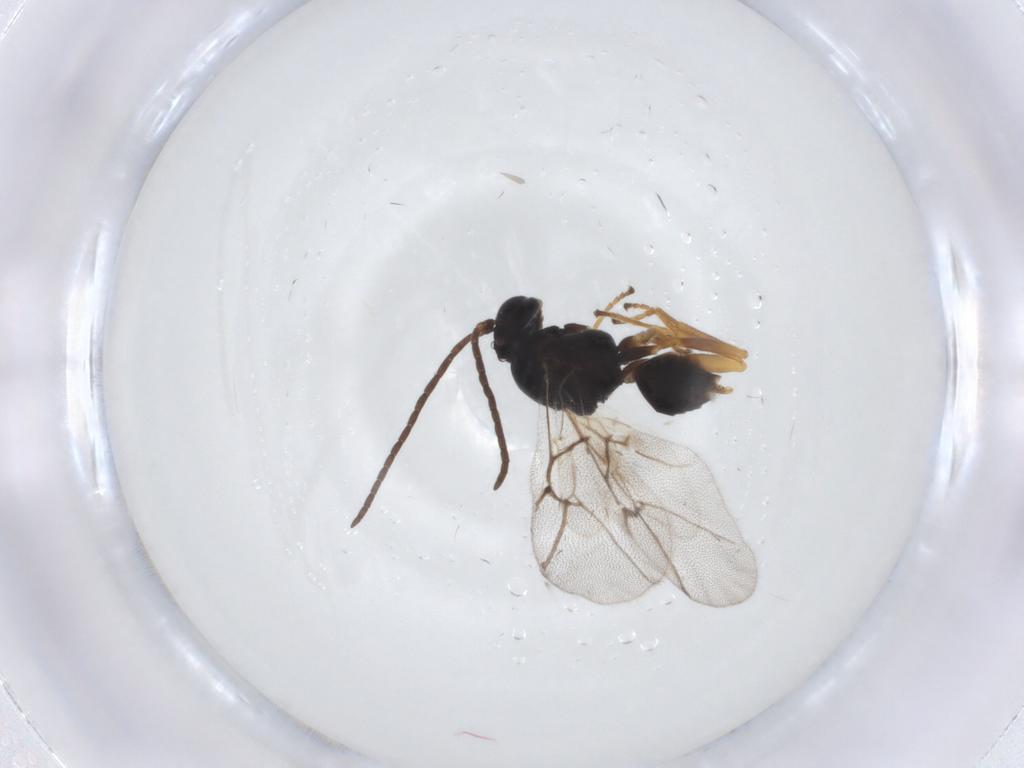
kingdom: Animalia
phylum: Arthropoda
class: Insecta
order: Hymenoptera
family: Cynipidae
